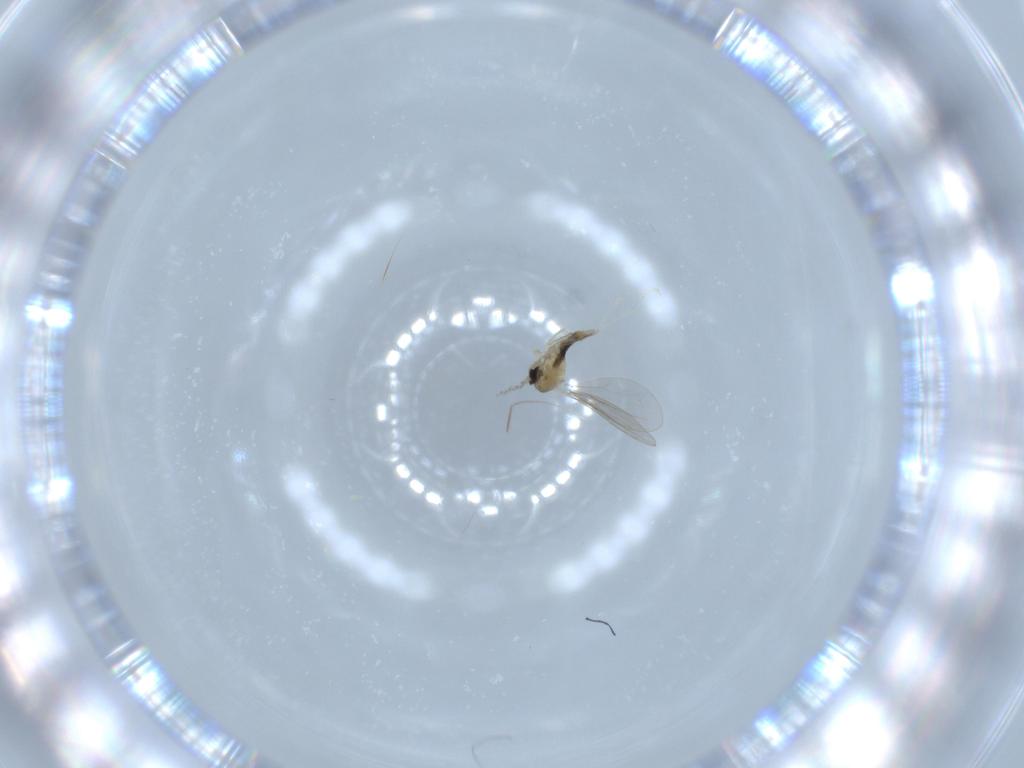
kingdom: Animalia
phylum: Arthropoda
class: Insecta
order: Diptera
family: Cecidomyiidae
